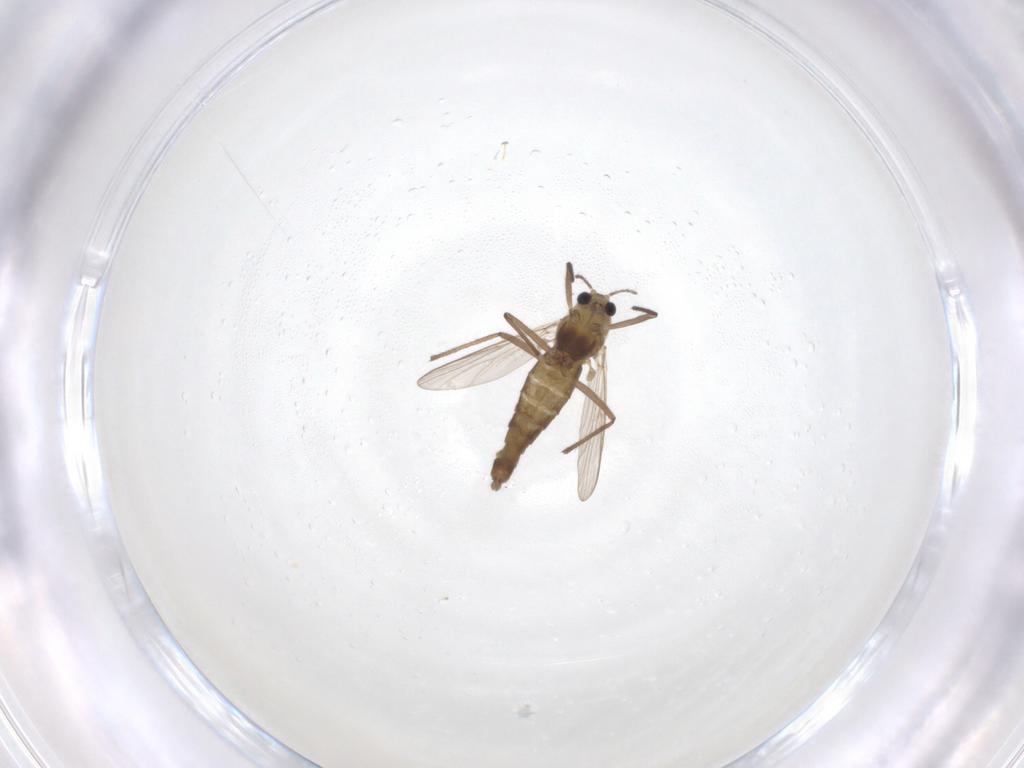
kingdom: Animalia
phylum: Arthropoda
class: Insecta
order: Diptera
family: Chironomidae
